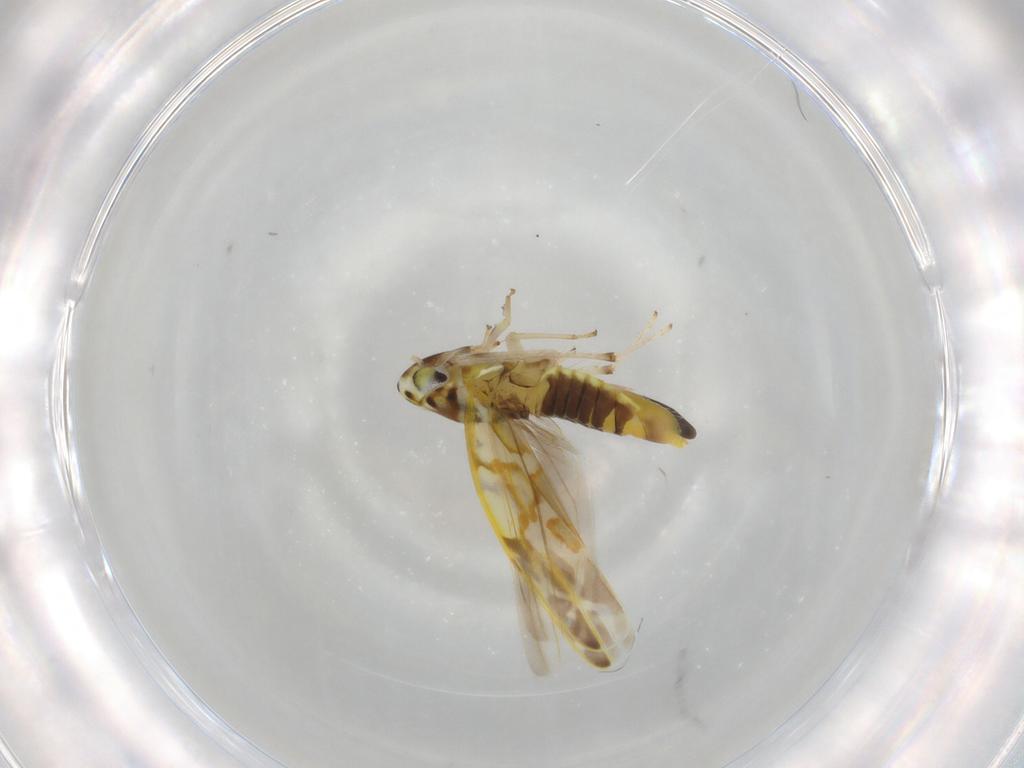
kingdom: Animalia
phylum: Arthropoda
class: Insecta
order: Hemiptera
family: Cicadellidae
